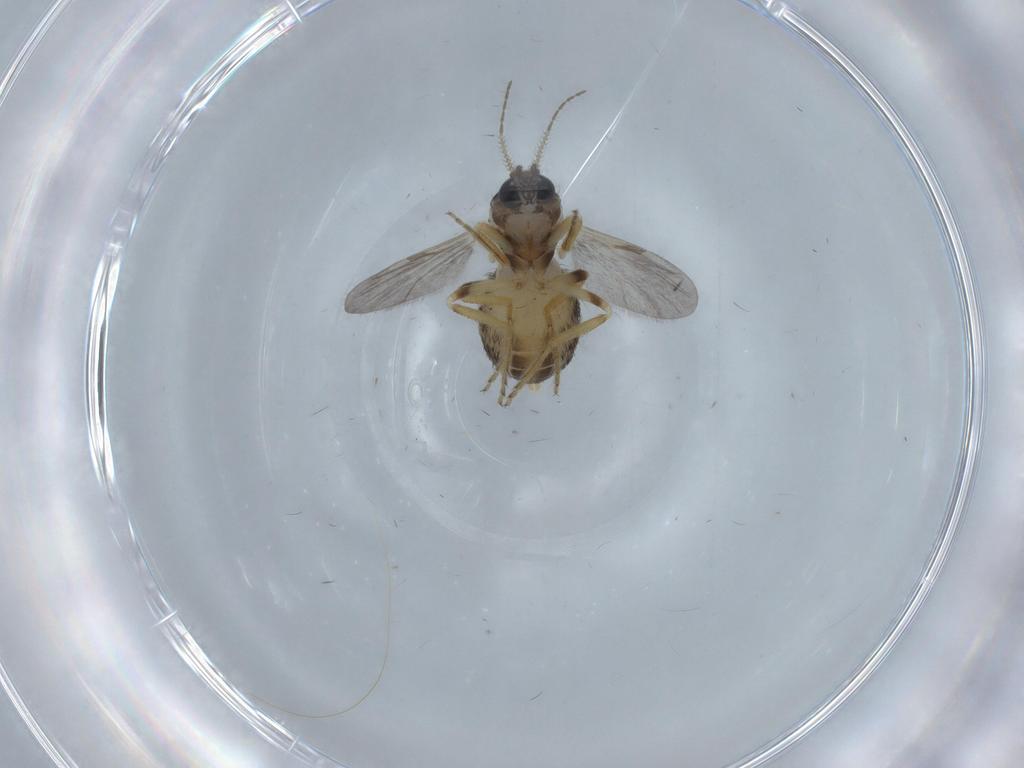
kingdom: Animalia
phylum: Arthropoda
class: Insecta
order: Diptera
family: Ceratopogonidae
